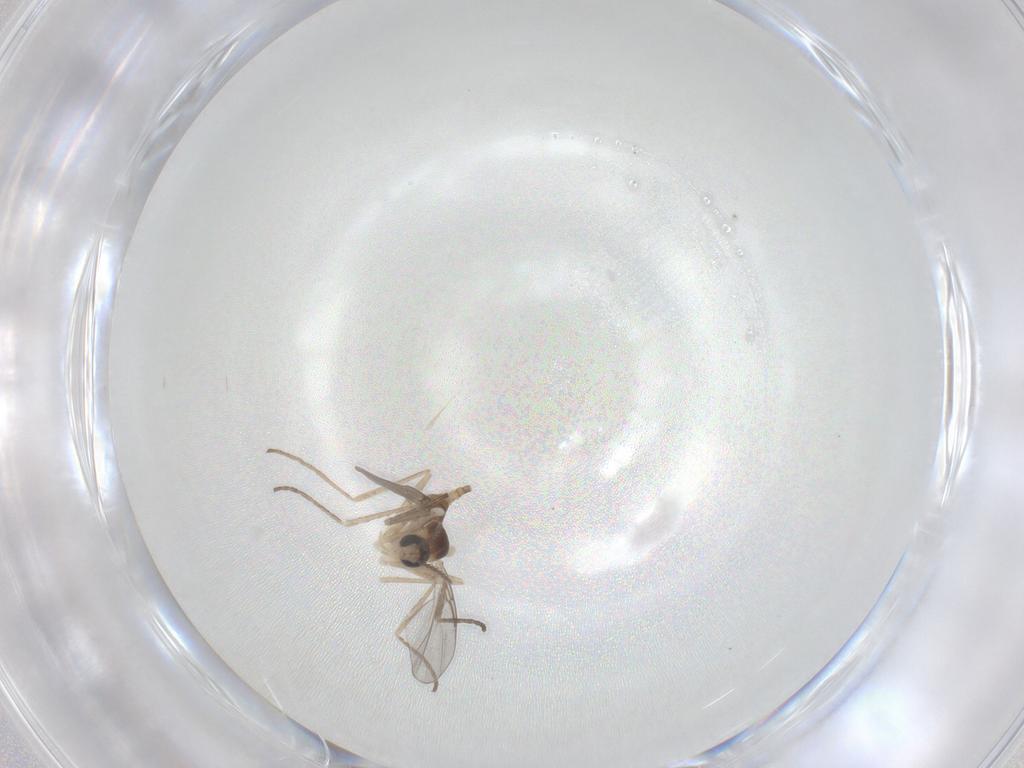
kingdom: Animalia
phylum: Arthropoda
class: Insecta
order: Diptera
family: Cecidomyiidae
